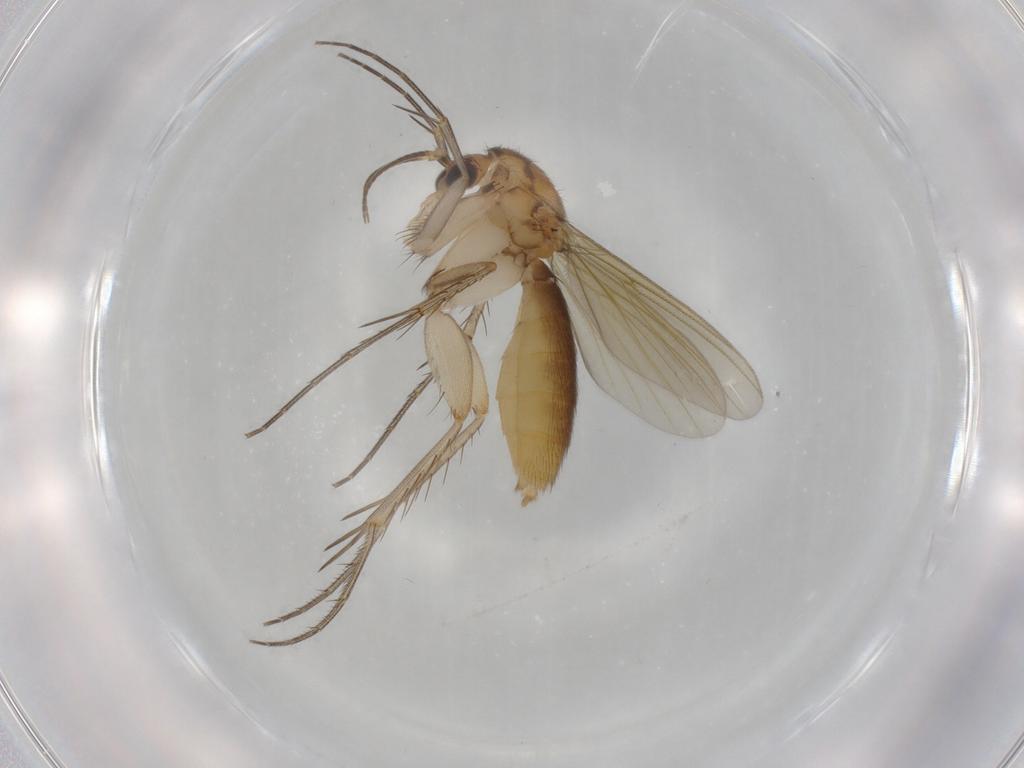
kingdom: Animalia
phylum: Arthropoda
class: Insecta
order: Diptera
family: Mycetophilidae
